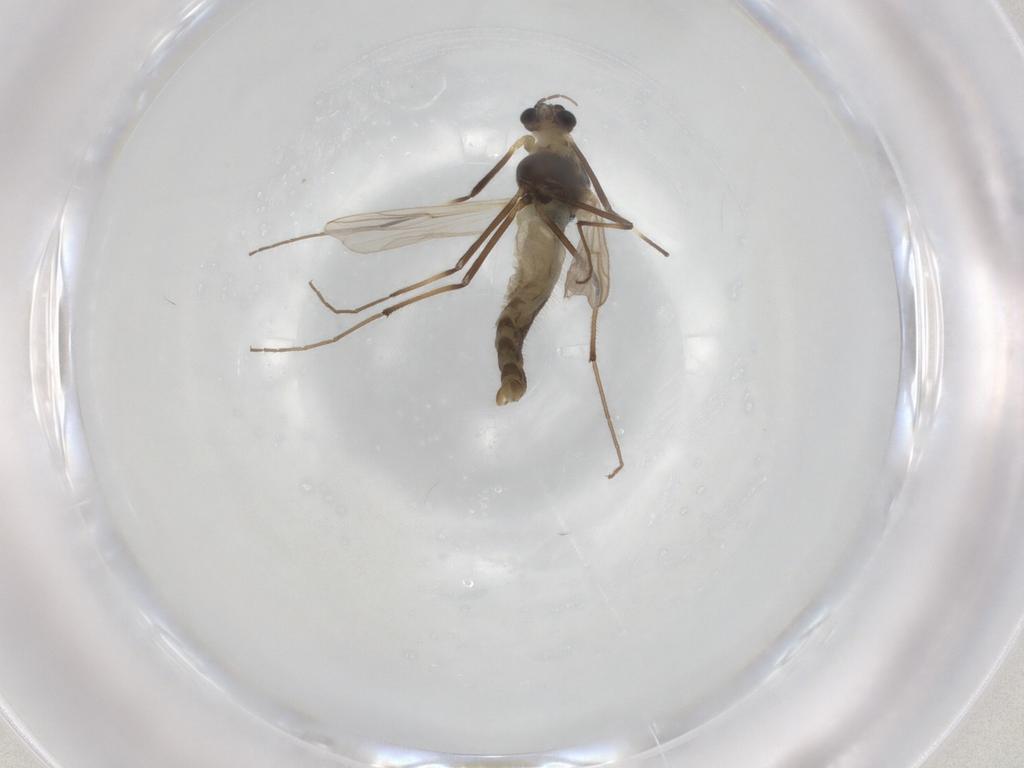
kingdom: Animalia
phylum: Arthropoda
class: Insecta
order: Diptera
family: Chironomidae
